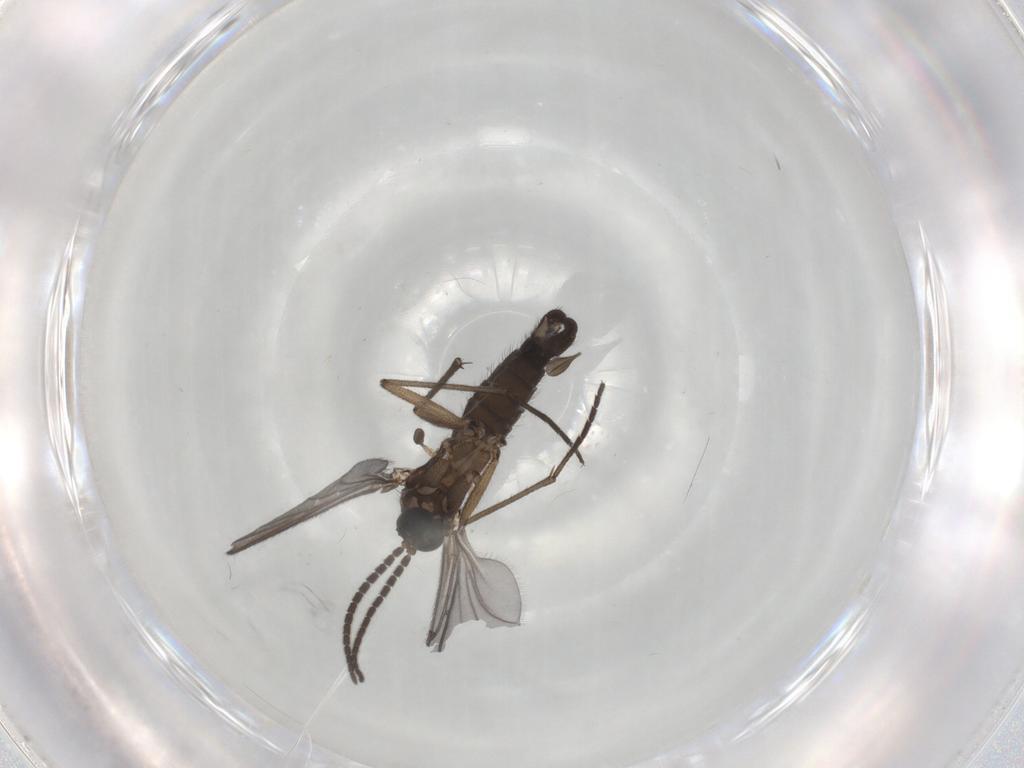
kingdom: Animalia
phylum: Arthropoda
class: Insecta
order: Diptera
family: Sciaridae
